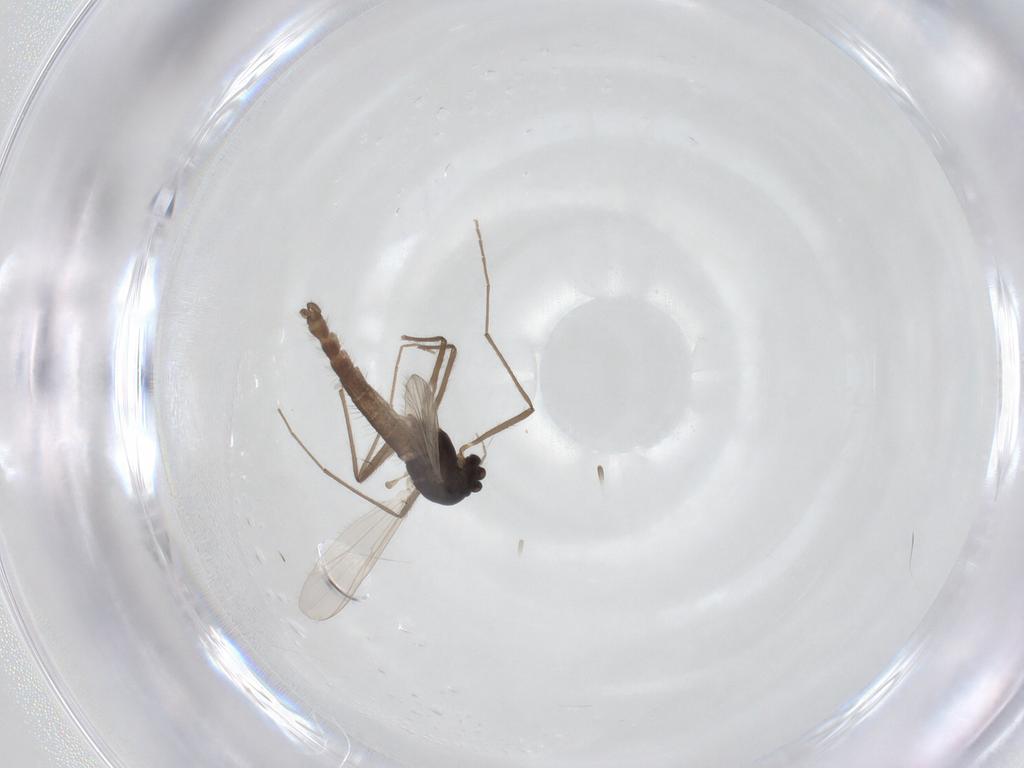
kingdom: Animalia
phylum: Arthropoda
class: Insecta
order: Diptera
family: Chironomidae
